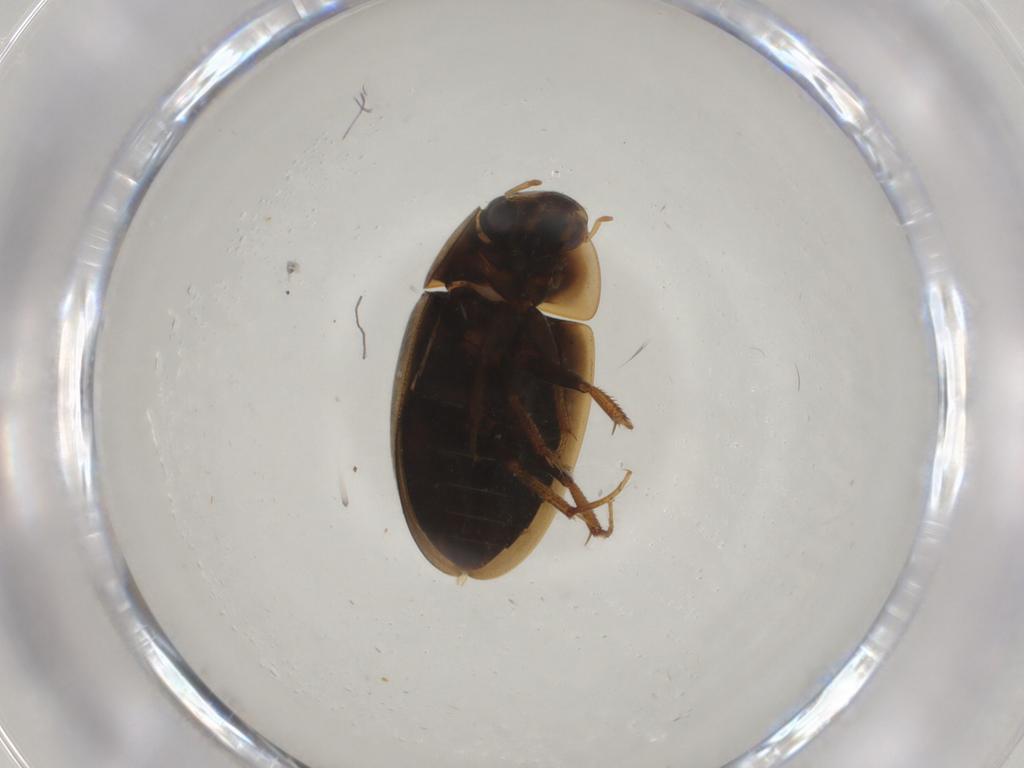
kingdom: Animalia
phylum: Arthropoda
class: Insecta
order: Coleoptera
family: Hydrophilidae
